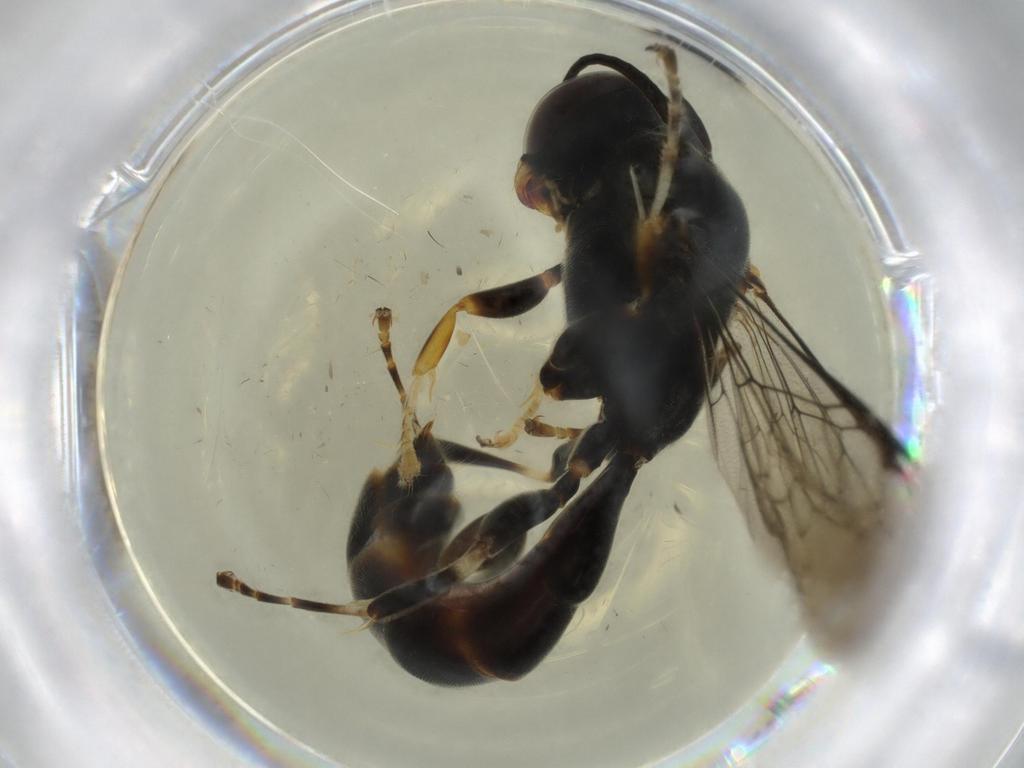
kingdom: Animalia
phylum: Arthropoda
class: Insecta
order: Hymenoptera
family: Crabronidae
